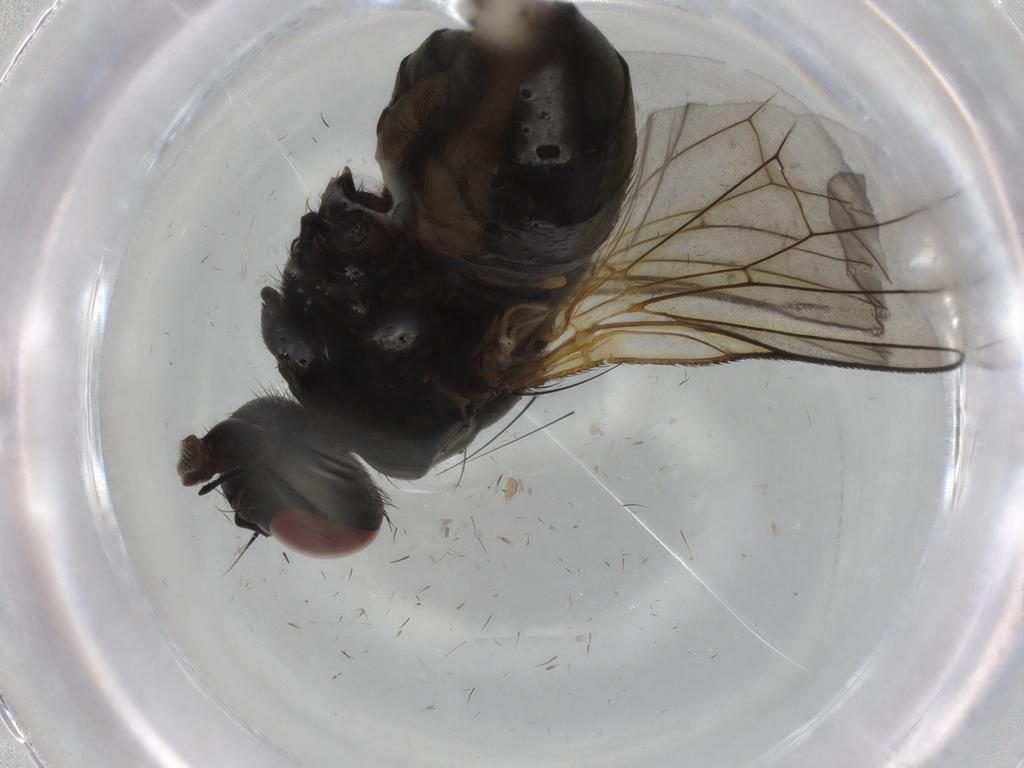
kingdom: Animalia
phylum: Arthropoda
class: Insecta
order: Diptera
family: Muscidae
